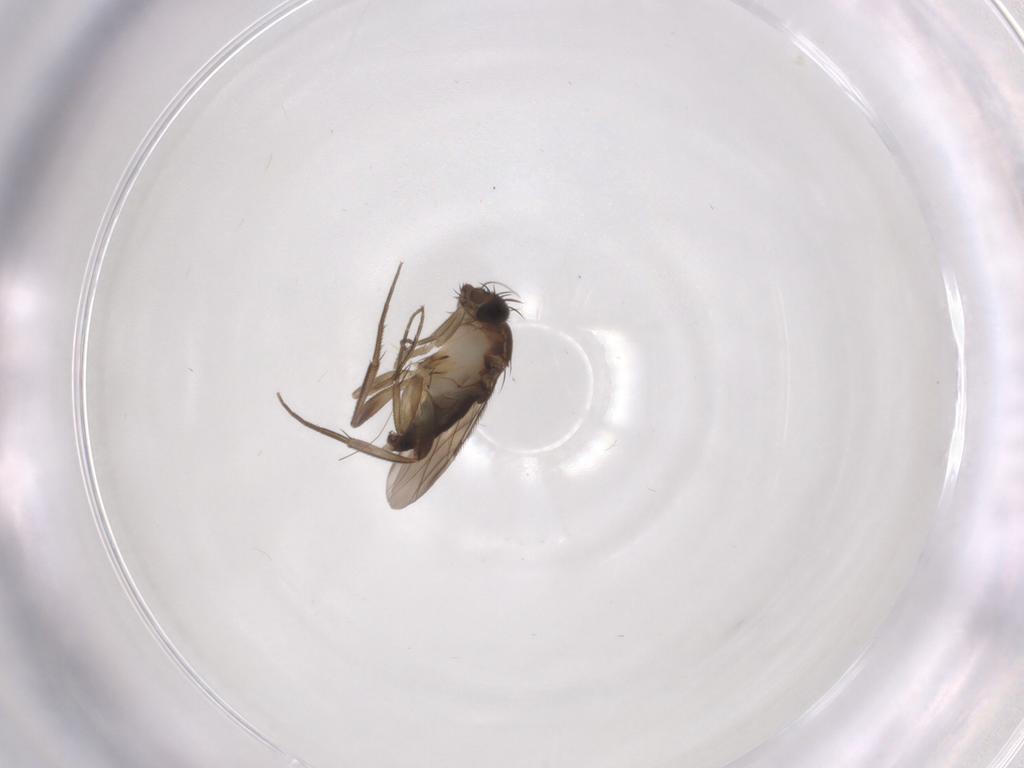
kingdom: Animalia
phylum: Arthropoda
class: Insecta
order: Diptera
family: Phoridae
